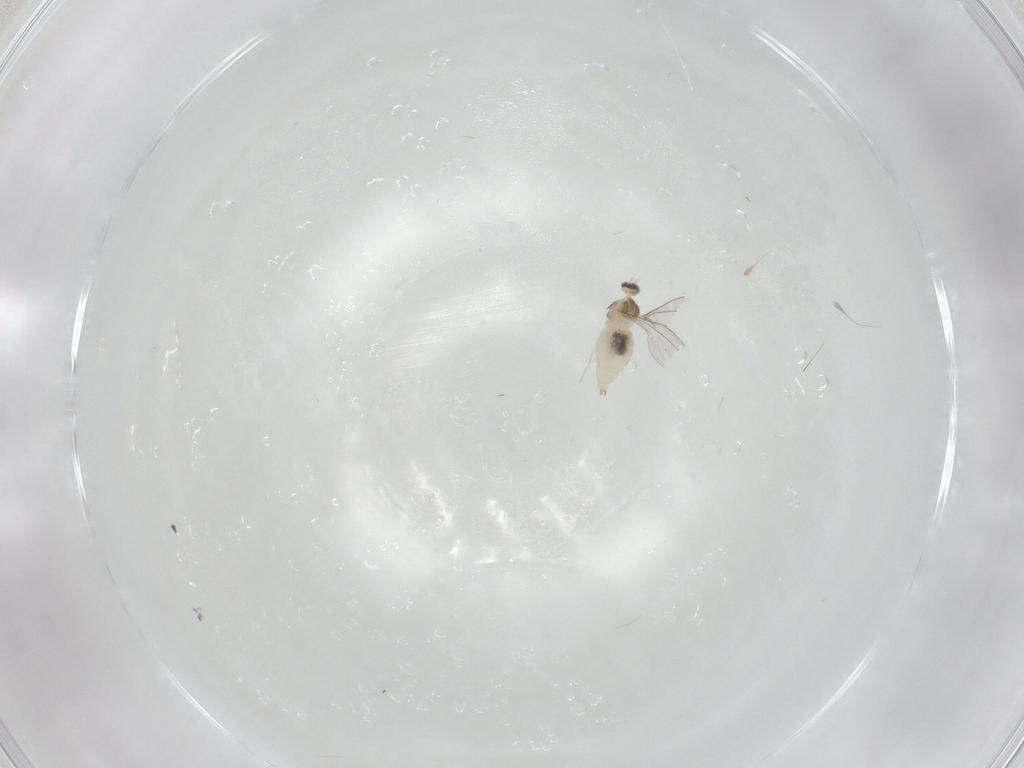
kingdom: Animalia
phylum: Arthropoda
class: Insecta
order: Diptera
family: Cecidomyiidae
